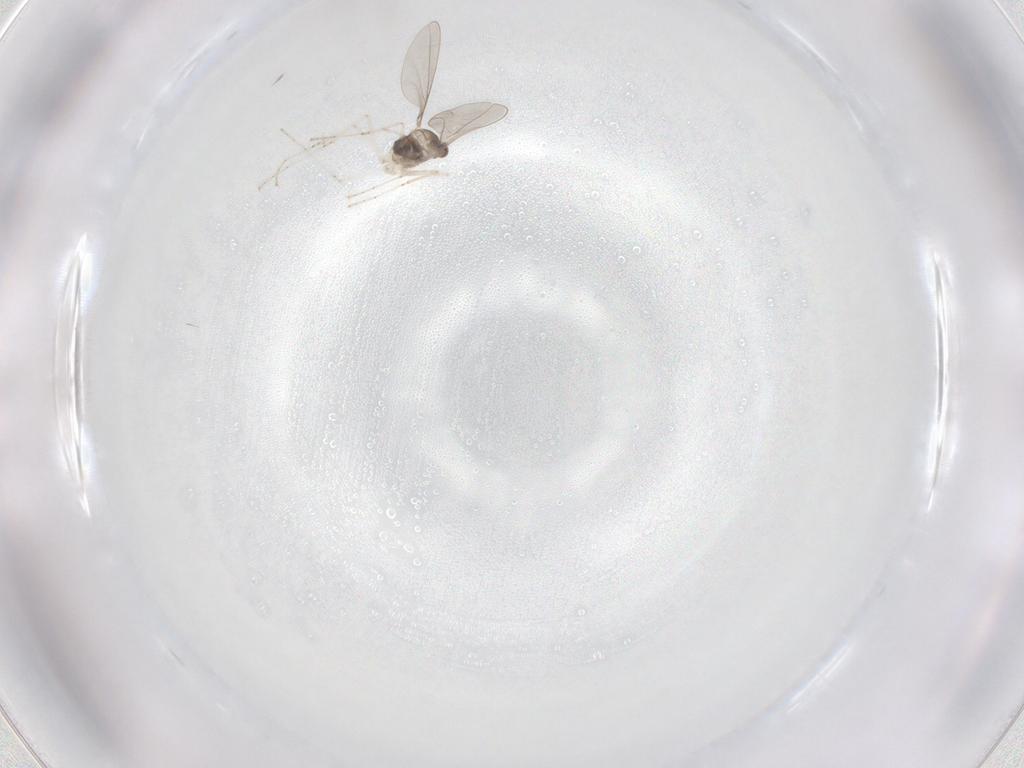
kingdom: Animalia
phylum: Arthropoda
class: Insecta
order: Diptera
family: Cecidomyiidae
